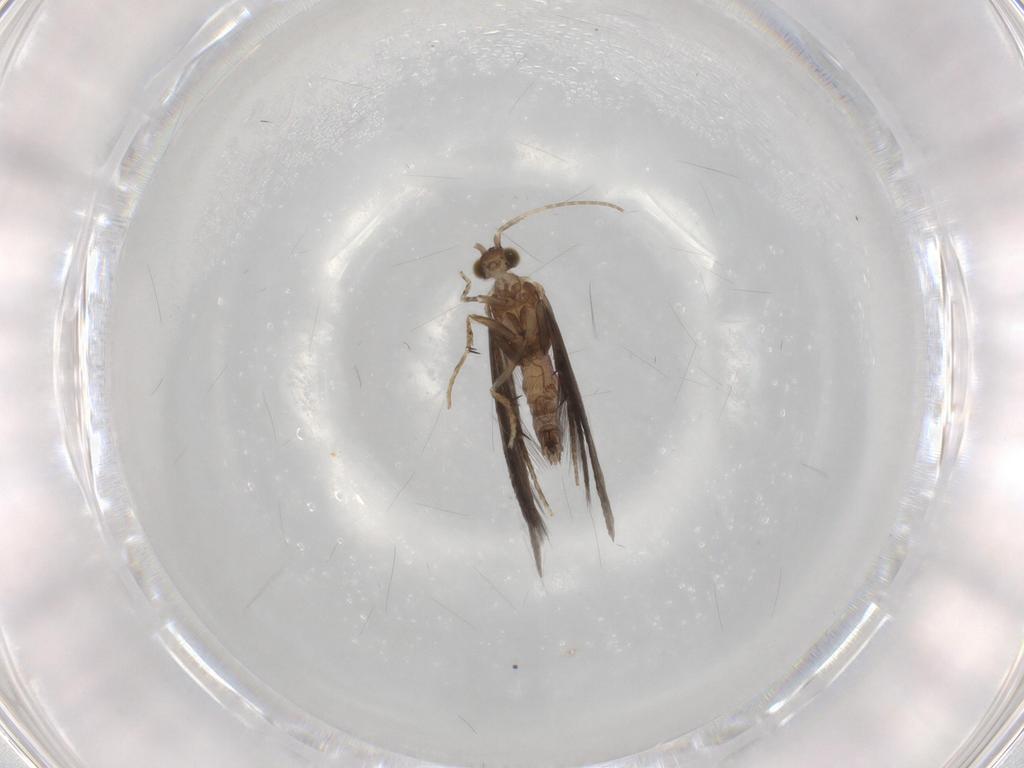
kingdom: Animalia
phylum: Arthropoda
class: Insecta
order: Trichoptera
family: Glossosomatidae
